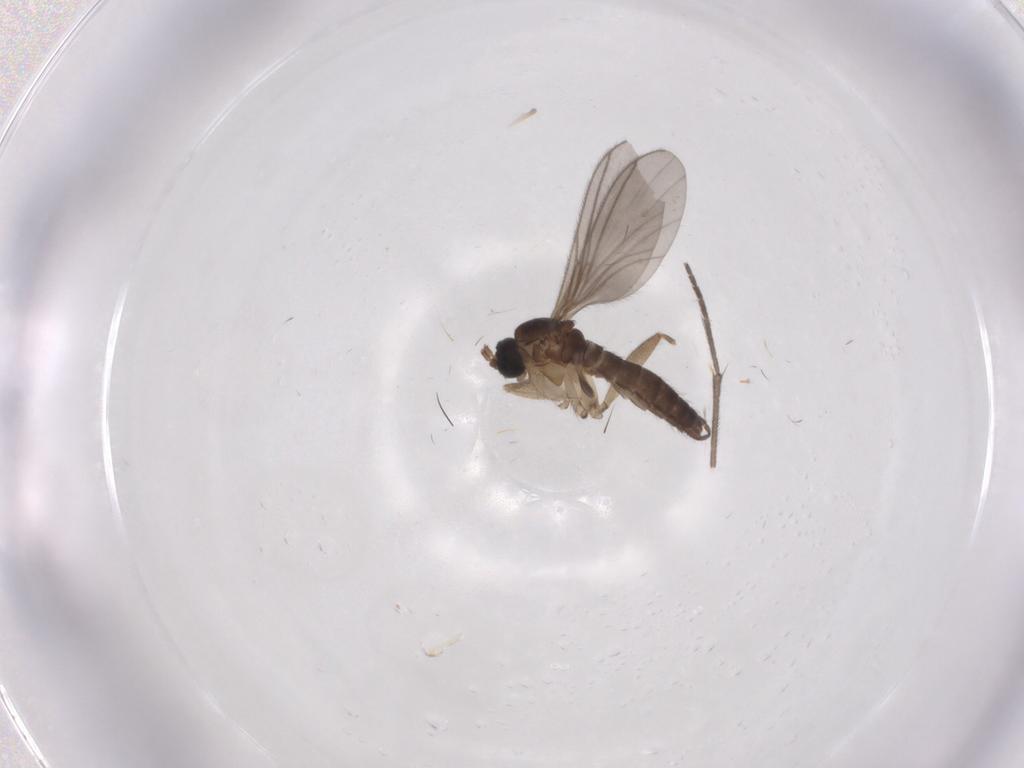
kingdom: Animalia
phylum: Arthropoda
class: Insecta
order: Diptera
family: Sciaridae
